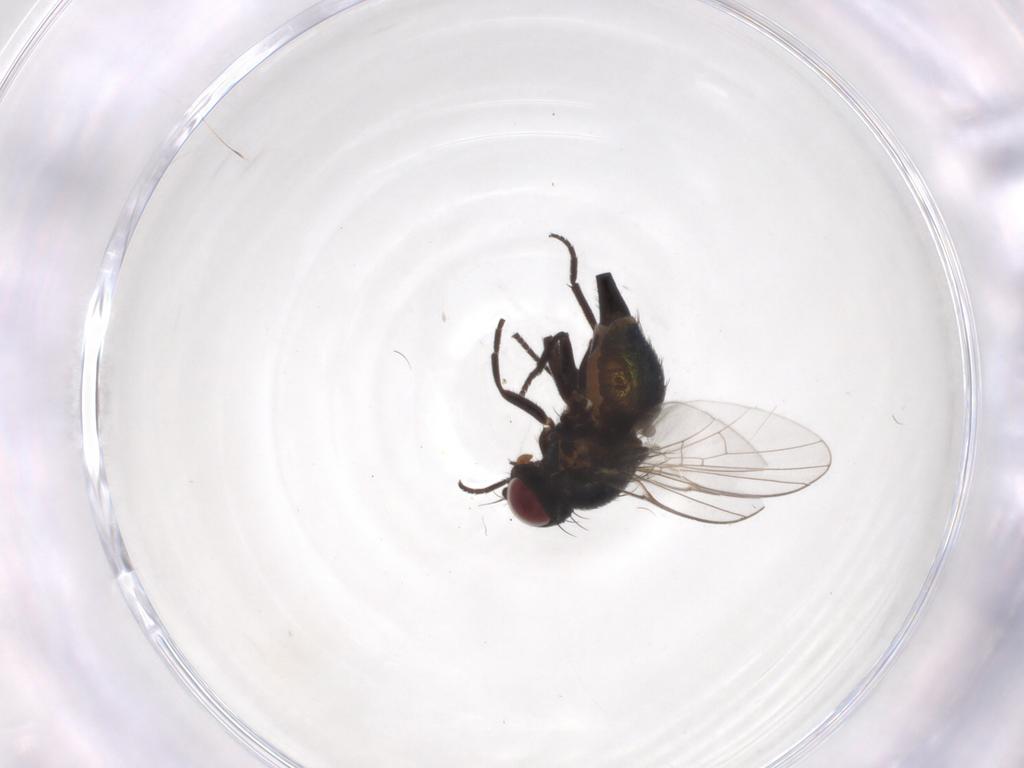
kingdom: Animalia
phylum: Arthropoda
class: Insecta
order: Diptera
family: Agromyzidae
